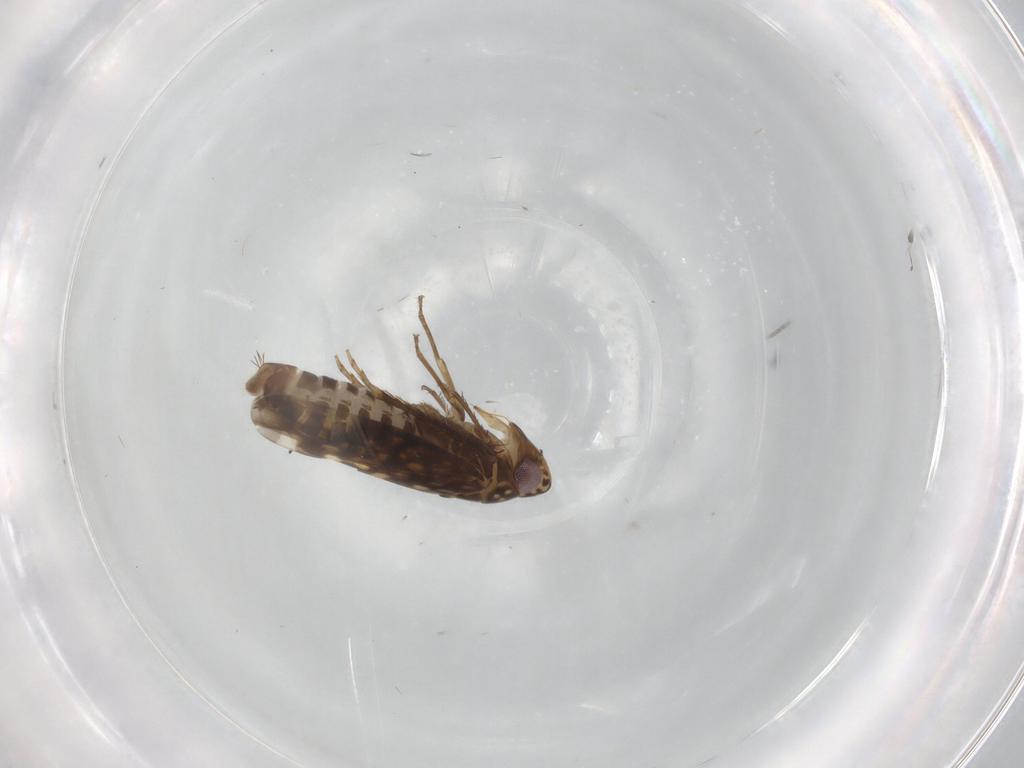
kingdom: Animalia
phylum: Arthropoda
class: Insecta
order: Hemiptera
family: Cicadellidae
